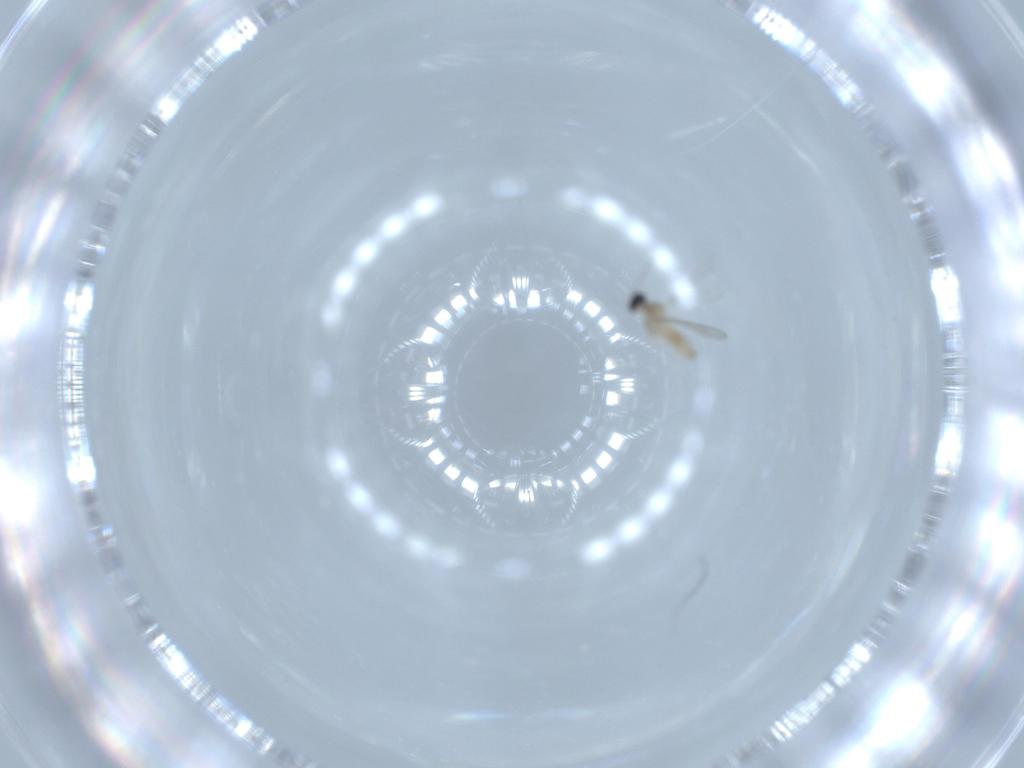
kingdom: Animalia
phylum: Arthropoda
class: Insecta
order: Diptera
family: Cecidomyiidae
